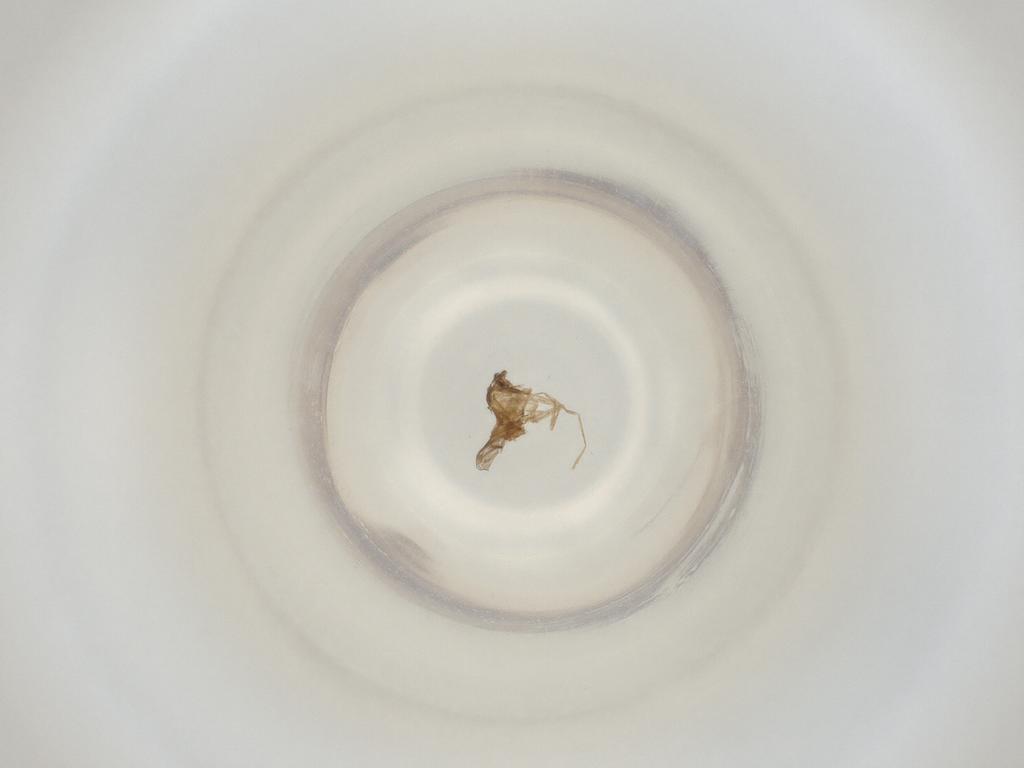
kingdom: Animalia
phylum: Arthropoda
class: Insecta
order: Diptera
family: Cecidomyiidae
